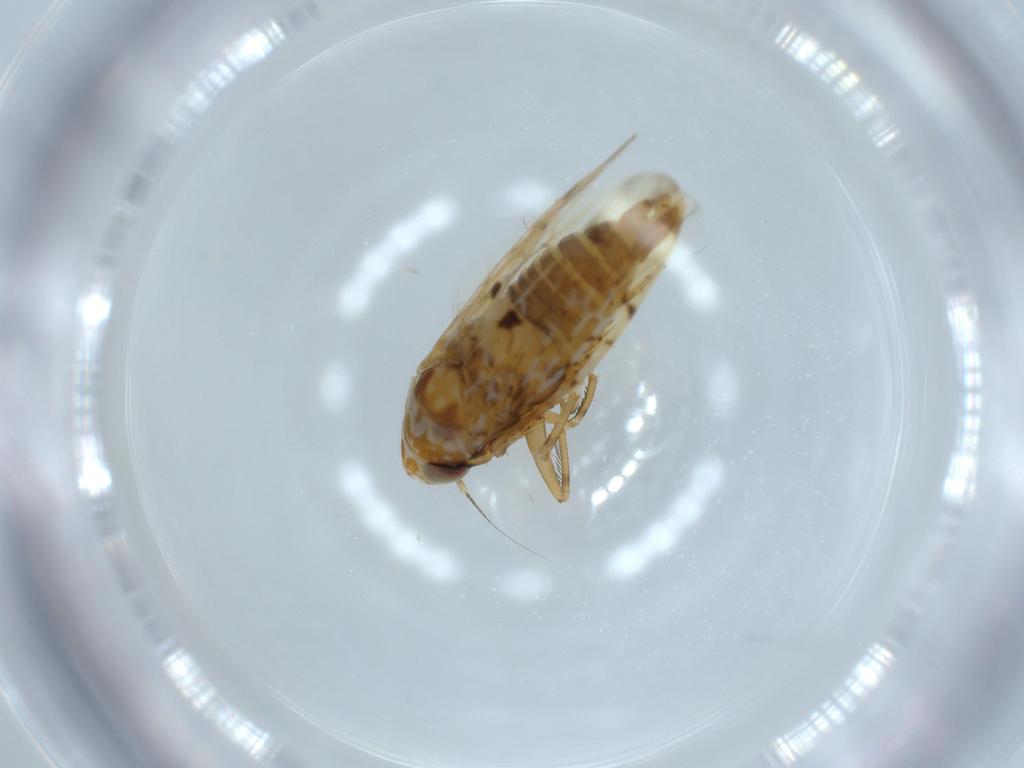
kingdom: Animalia
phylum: Arthropoda
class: Insecta
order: Hemiptera
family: Cicadellidae
